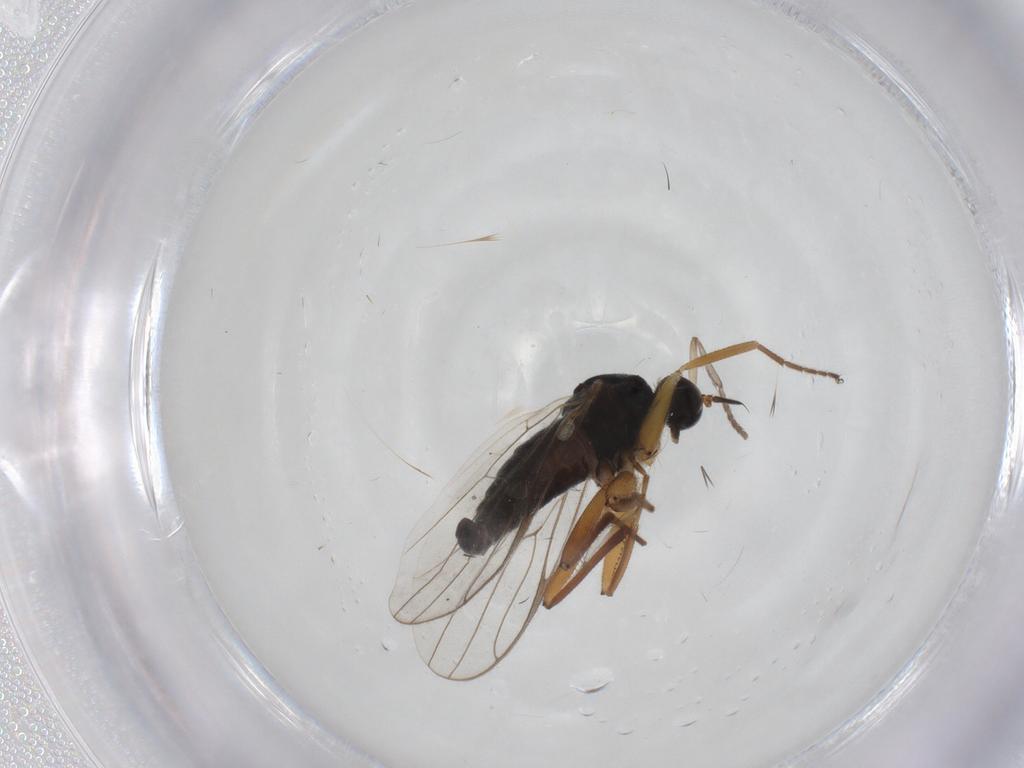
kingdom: Animalia
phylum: Arthropoda
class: Insecta
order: Diptera
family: Hybotidae
